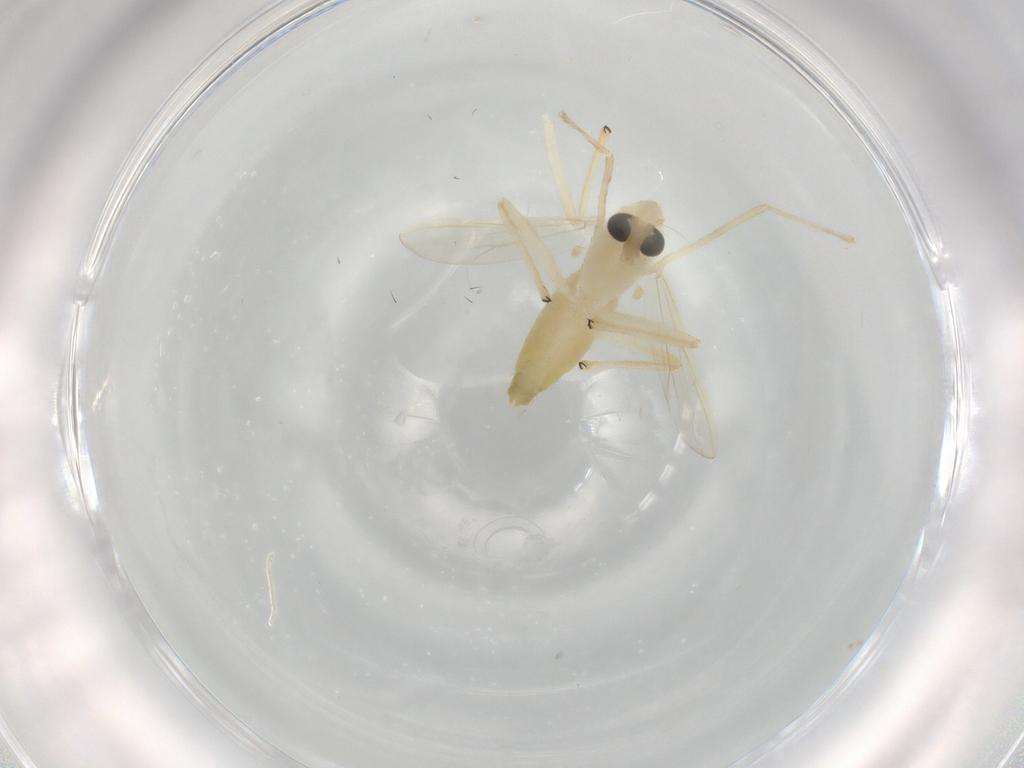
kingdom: Animalia
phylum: Arthropoda
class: Insecta
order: Diptera
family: Chironomidae
